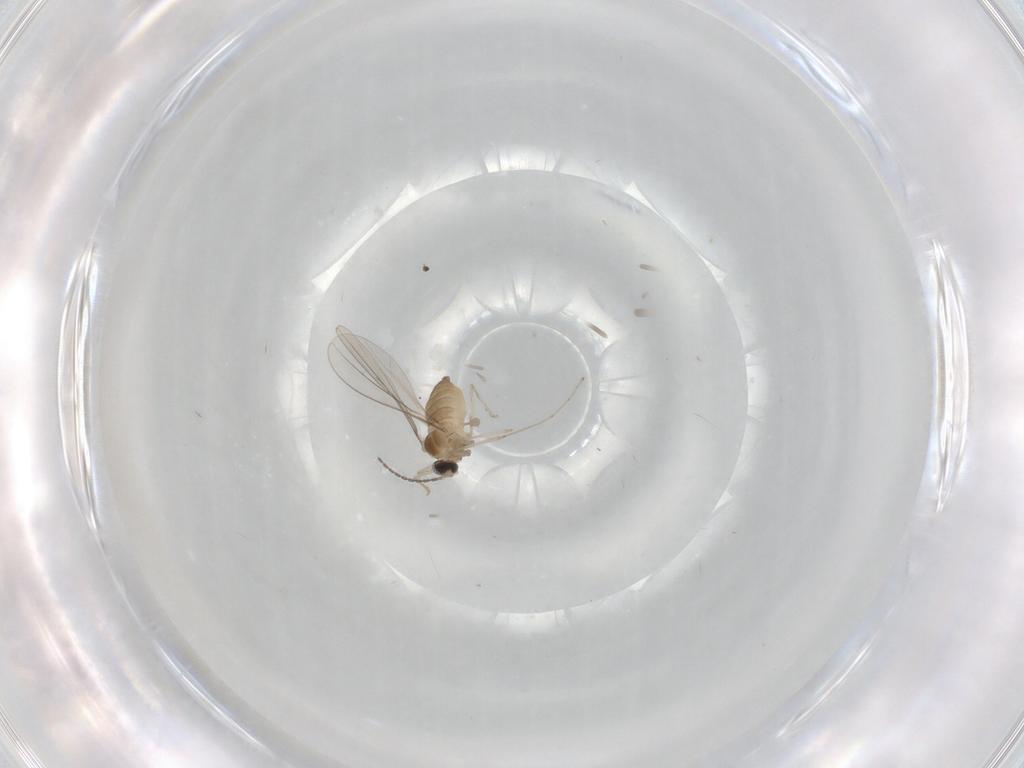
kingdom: Animalia
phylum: Arthropoda
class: Insecta
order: Diptera
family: Cecidomyiidae
